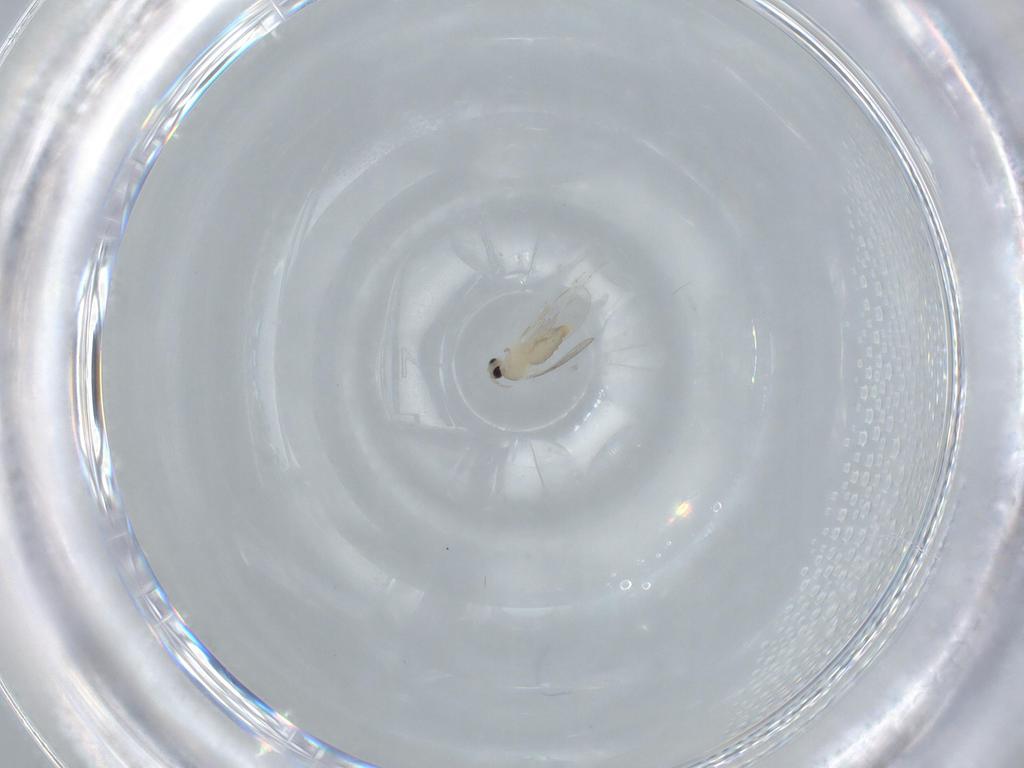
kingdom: Animalia
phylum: Arthropoda
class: Insecta
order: Diptera
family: Cecidomyiidae
